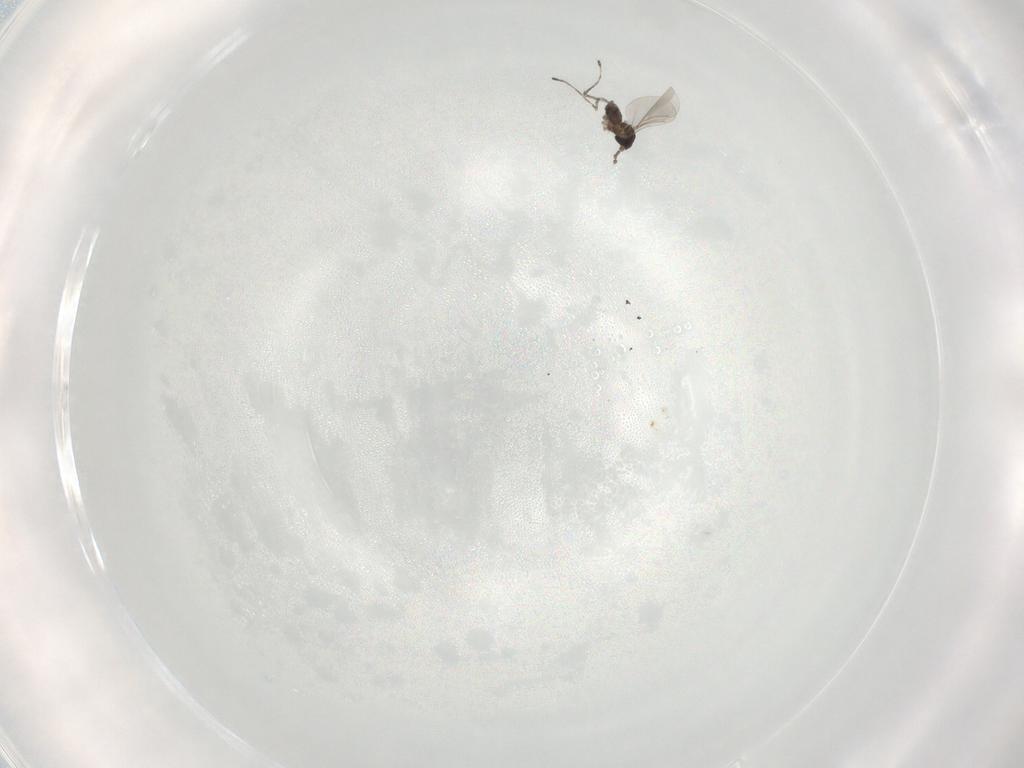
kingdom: Animalia
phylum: Arthropoda
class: Insecta
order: Diptera
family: Cecidomyiidae
